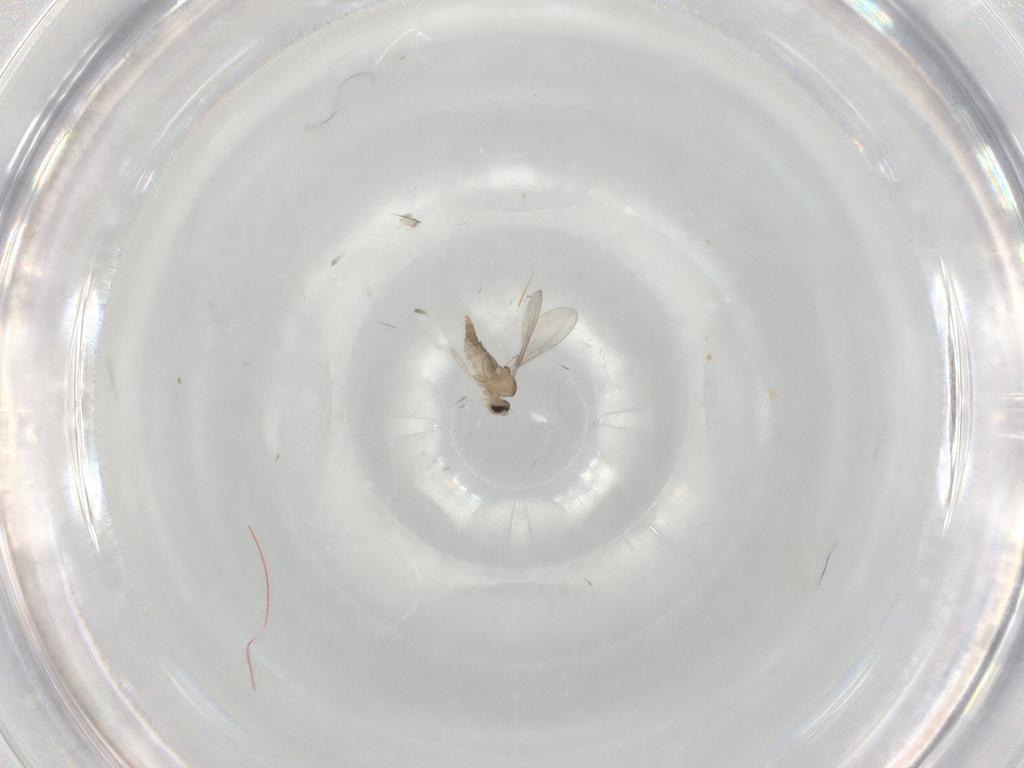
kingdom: Animalia
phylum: Arthropoda
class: Insecta
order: Diptera
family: Cecidomyiidae
